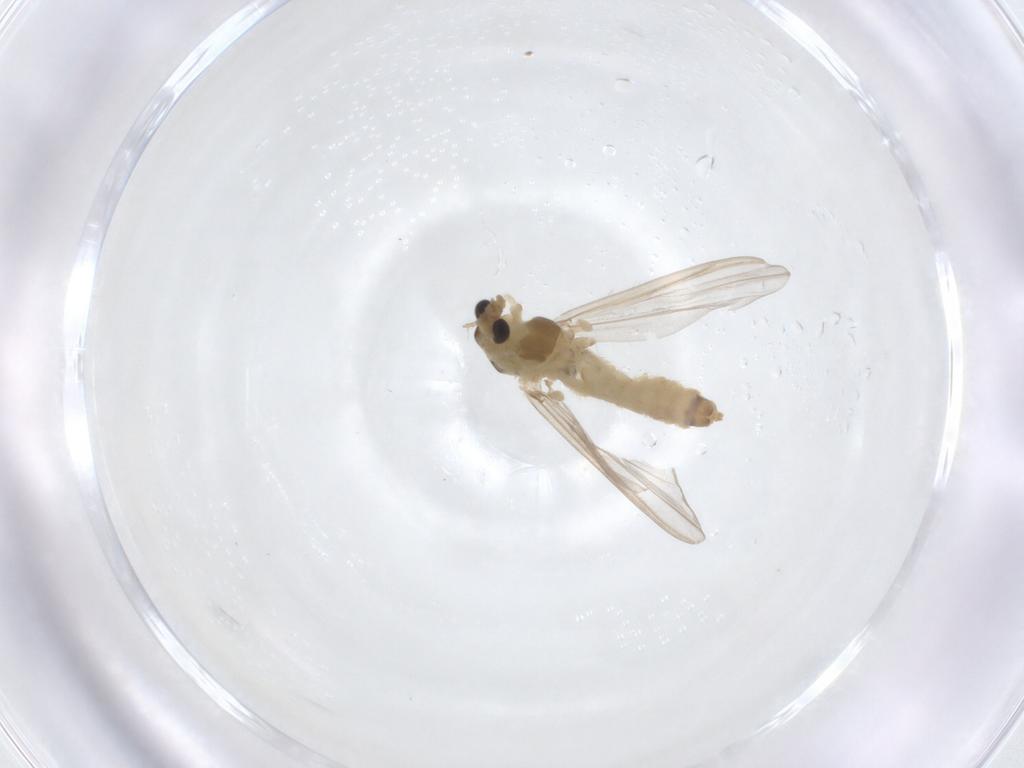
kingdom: Animalia
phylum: Arthropoda
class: Insecta
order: Diptera
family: Chironomidae
